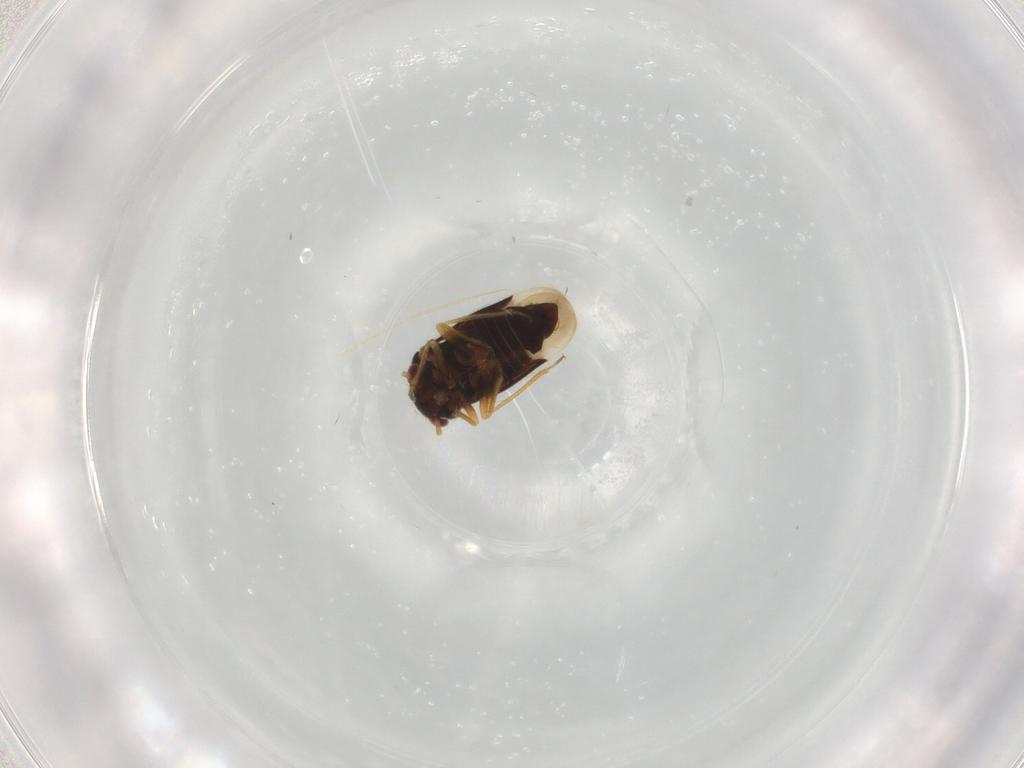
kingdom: Animalia
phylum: Arthropoda
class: Insecta
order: Hemiptera
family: Schizopteridae
